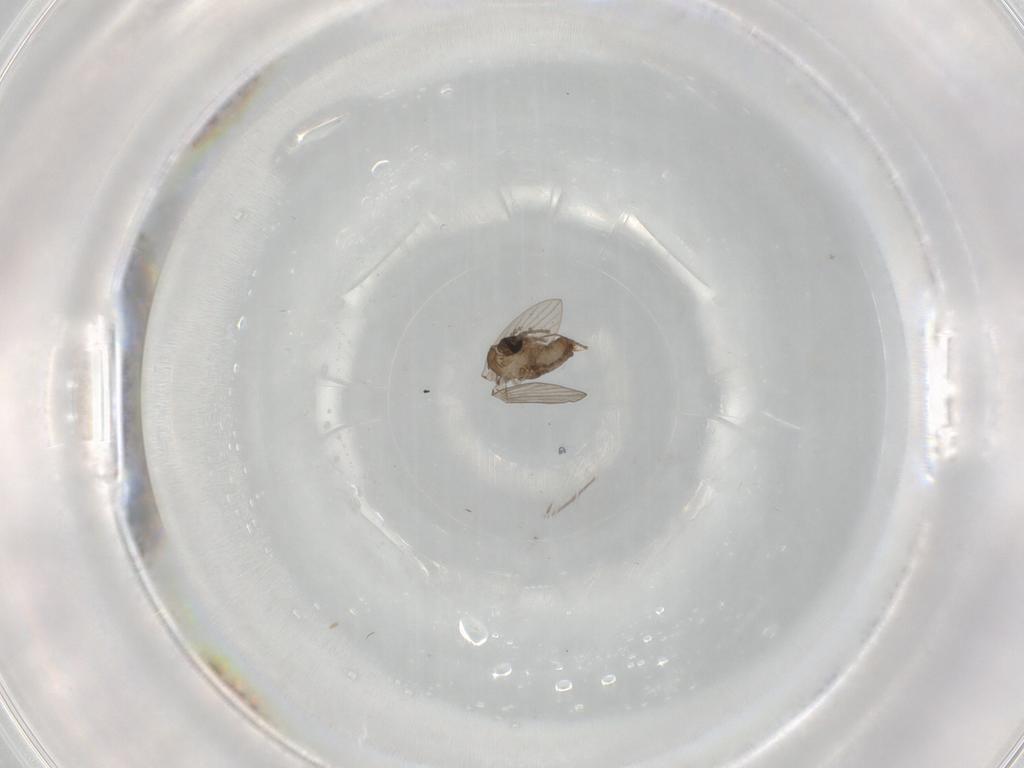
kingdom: Animalia
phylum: Arthropoda
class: Insecta
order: Diptera
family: Psychodidae
